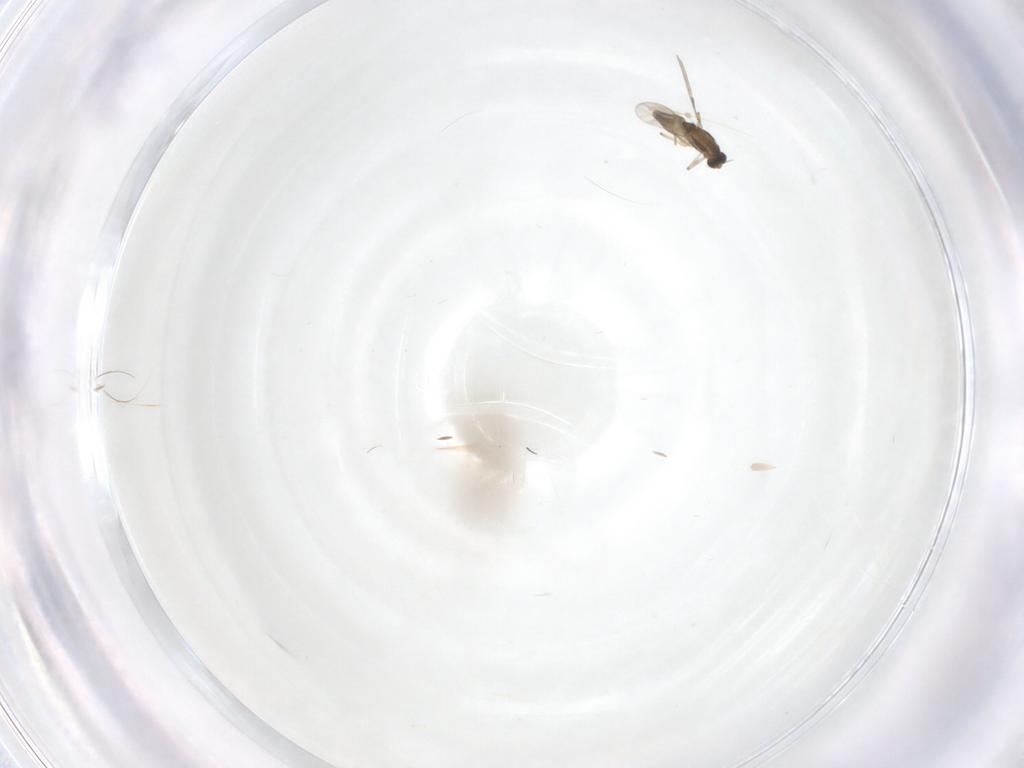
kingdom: Animalia
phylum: Arthropoda
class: Insecta
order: Diptera
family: Chironomidae
